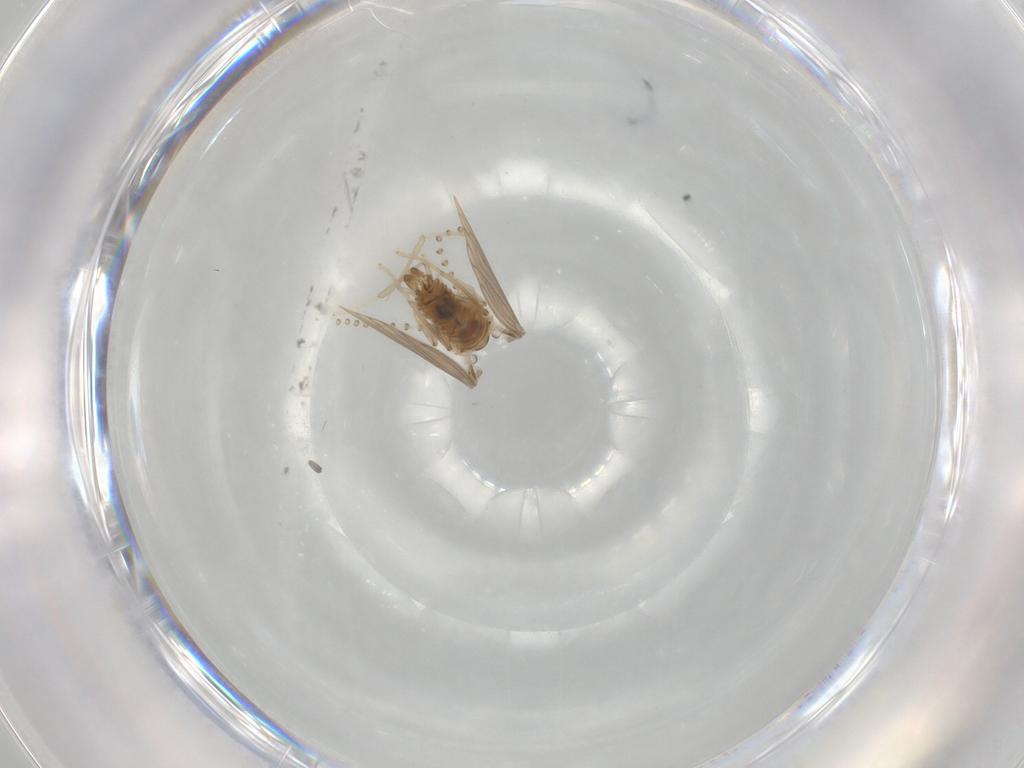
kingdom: Animalia
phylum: Arthropoda
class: Insecta
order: Diptera
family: Psychodidae
